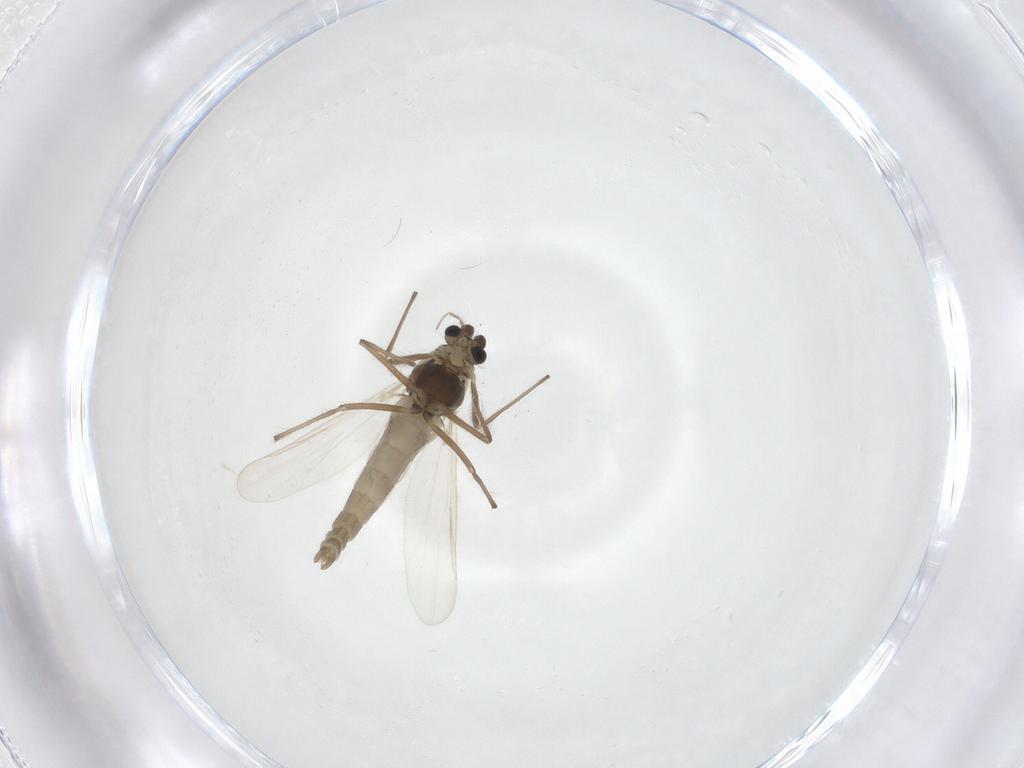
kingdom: Animalia
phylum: Arthropoda
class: Insecta
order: Diptera
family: Chironomidae
